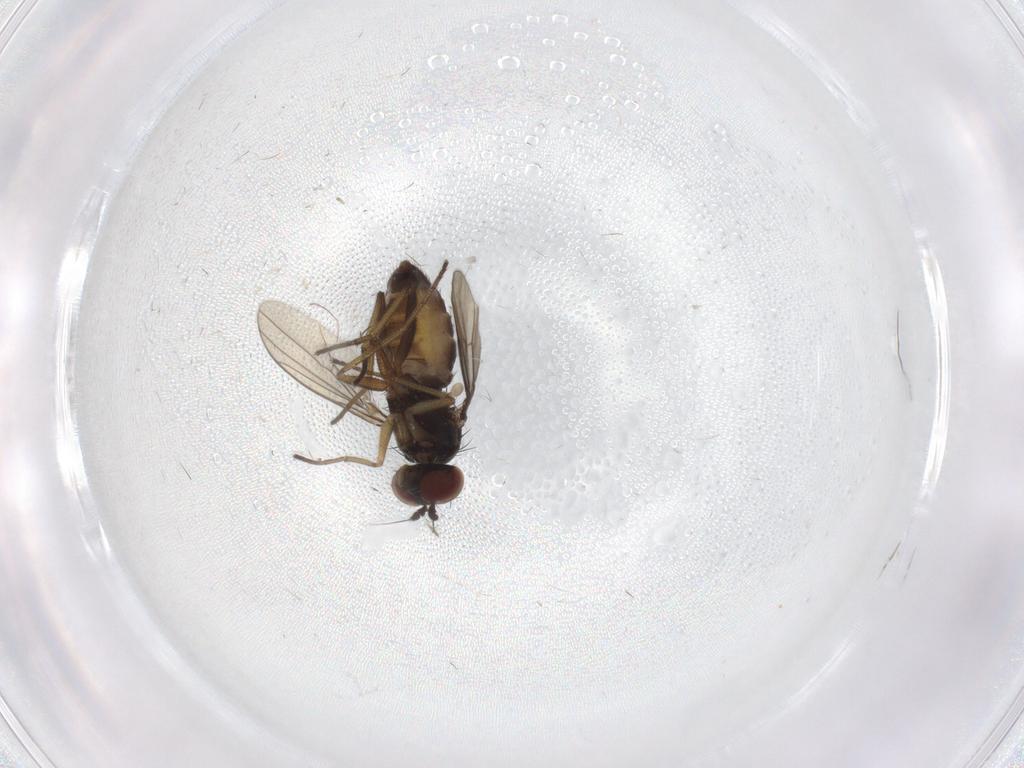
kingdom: Animalia
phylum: Arthropoda
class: Insecta
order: Diptera
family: Dolichopodidae
